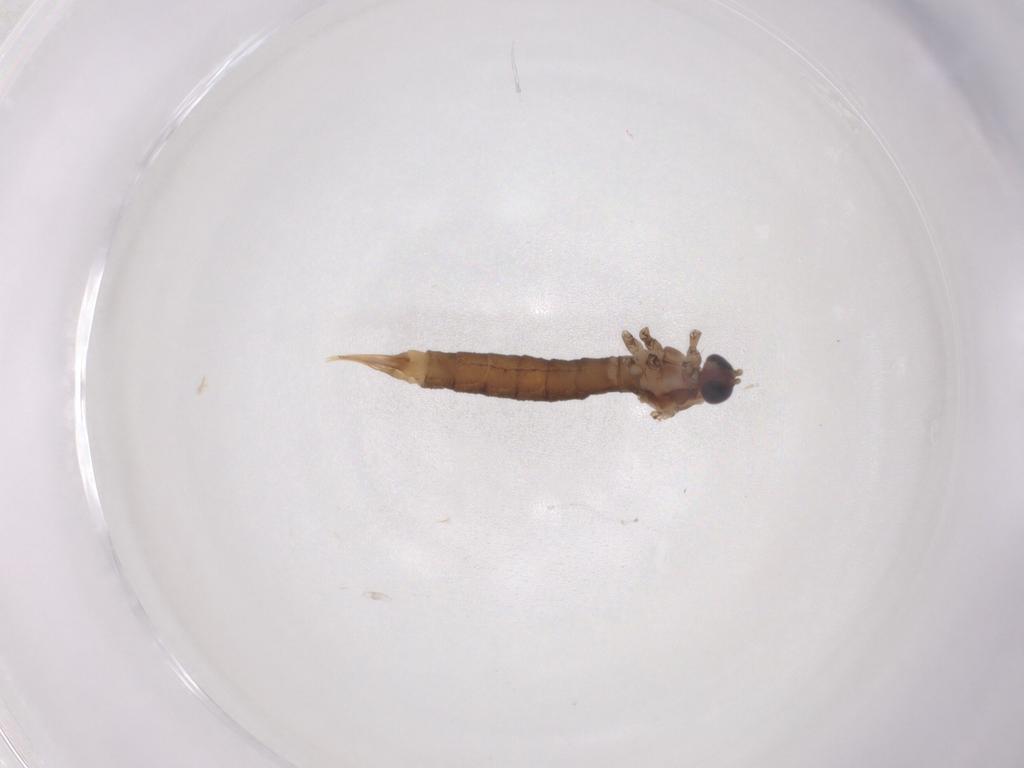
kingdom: Animalia
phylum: Arthropoda
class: Insecta
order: Diptera
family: Limoniidae
